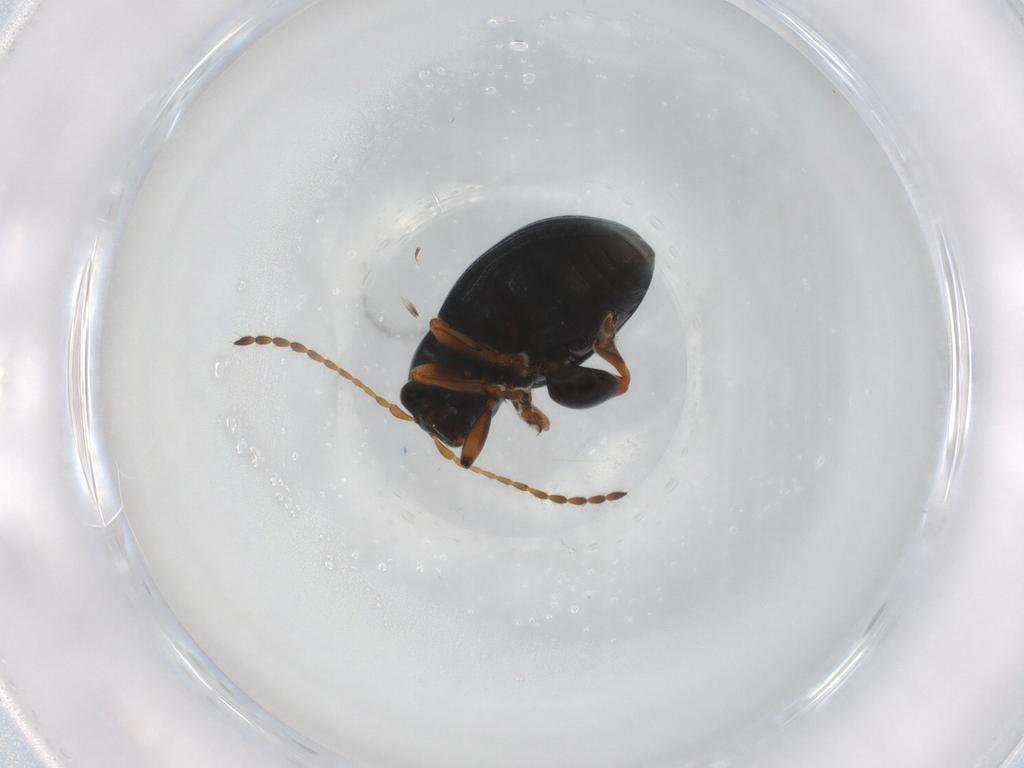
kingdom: Animalia
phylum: Arthropoda
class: Insecta
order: Coleoptera
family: Chrysomelidae
